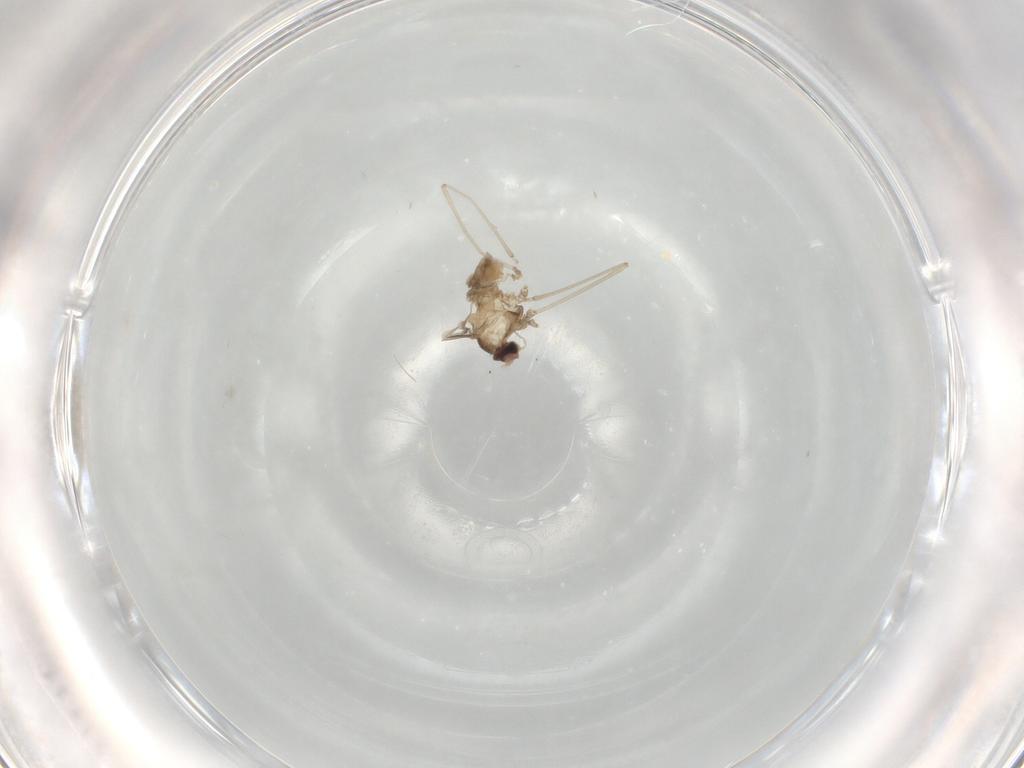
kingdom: Animalia
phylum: Arthropoda
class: Insecta
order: Diptera
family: Cecidomyiidae
